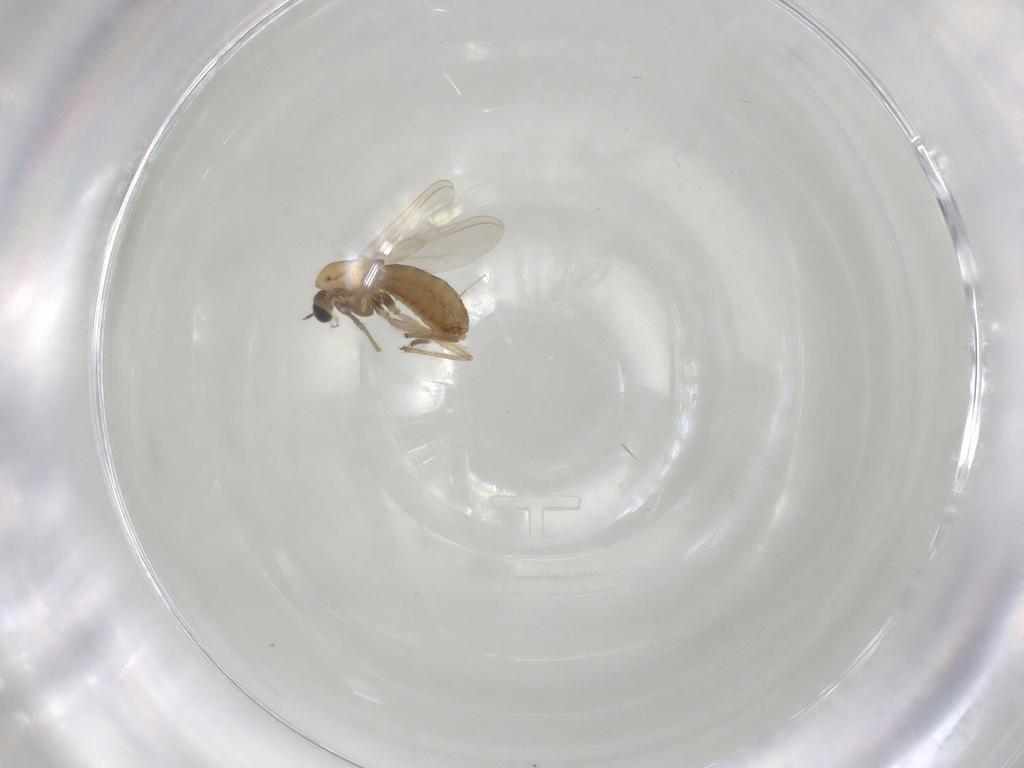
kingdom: Animalia
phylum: Arthropoda
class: Insecta
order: Diptera
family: Chironomidae
